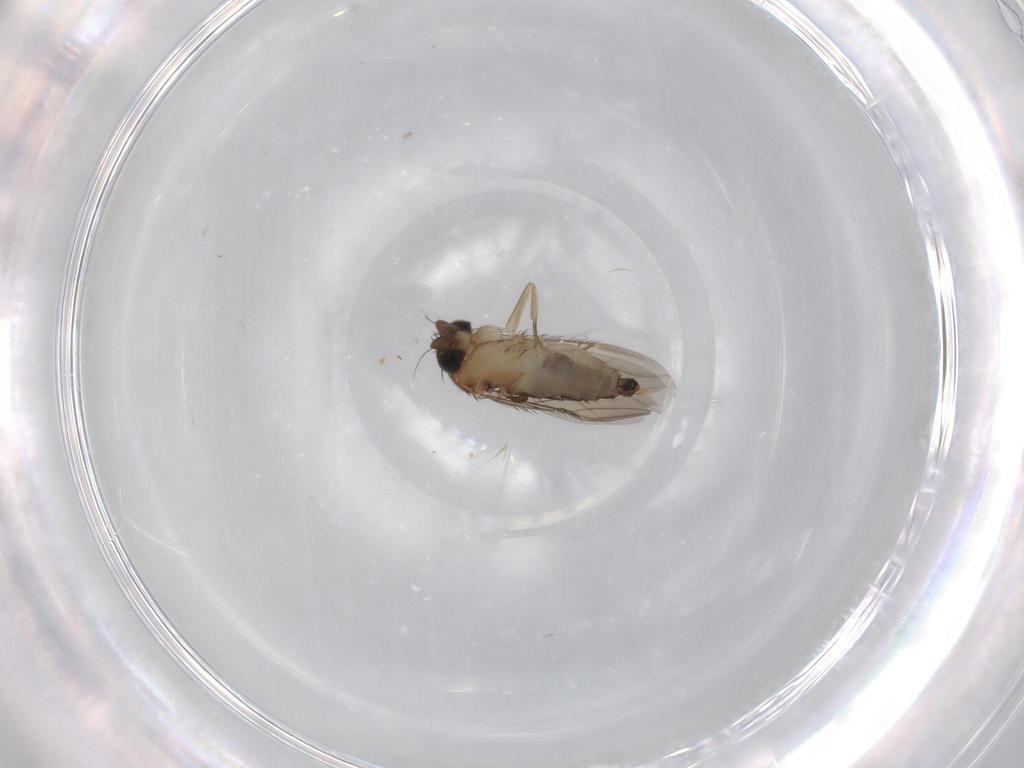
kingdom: Animalia
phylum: Arthropoda
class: Insecta
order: Diptera
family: Phoridae
